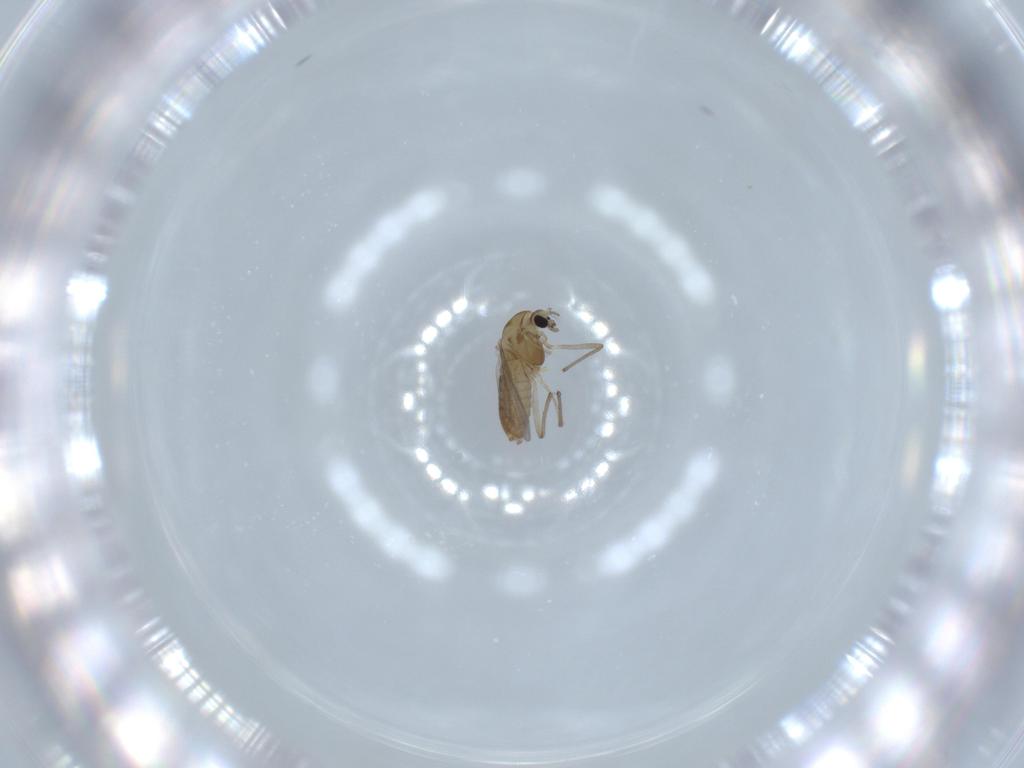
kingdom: Animalia
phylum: Arthropoda
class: Insecta
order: Diptera
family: Chironomidae
